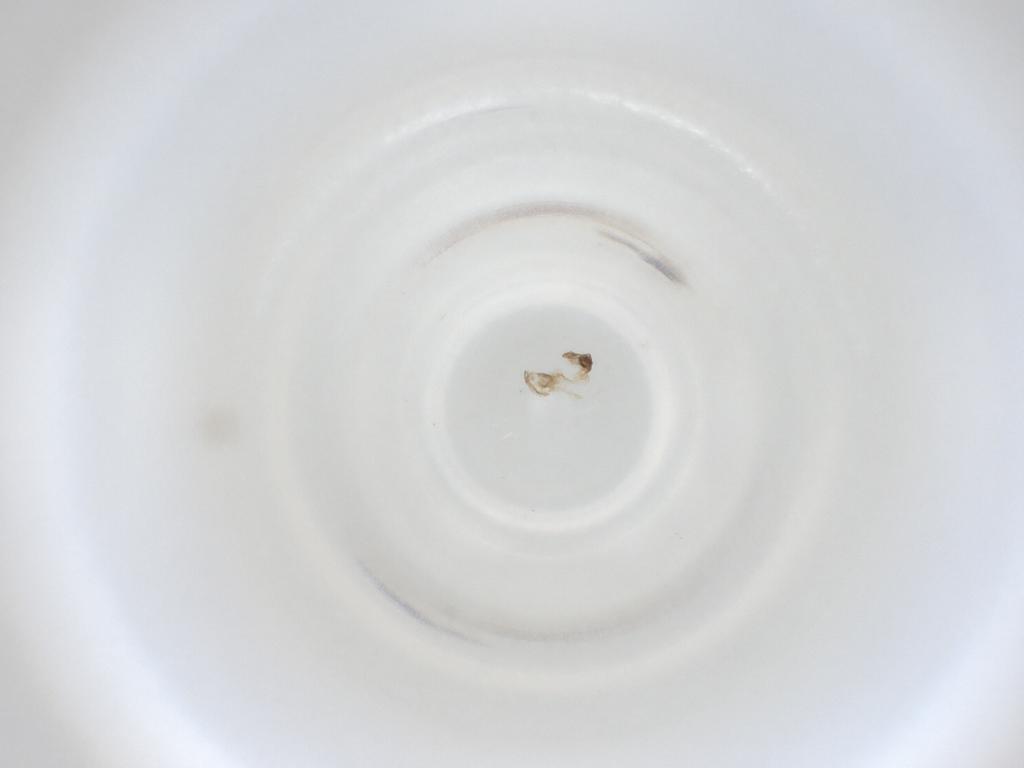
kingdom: Animalia
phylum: Arthropoda
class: Insecta
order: Diptera
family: Cecidomyiidae
